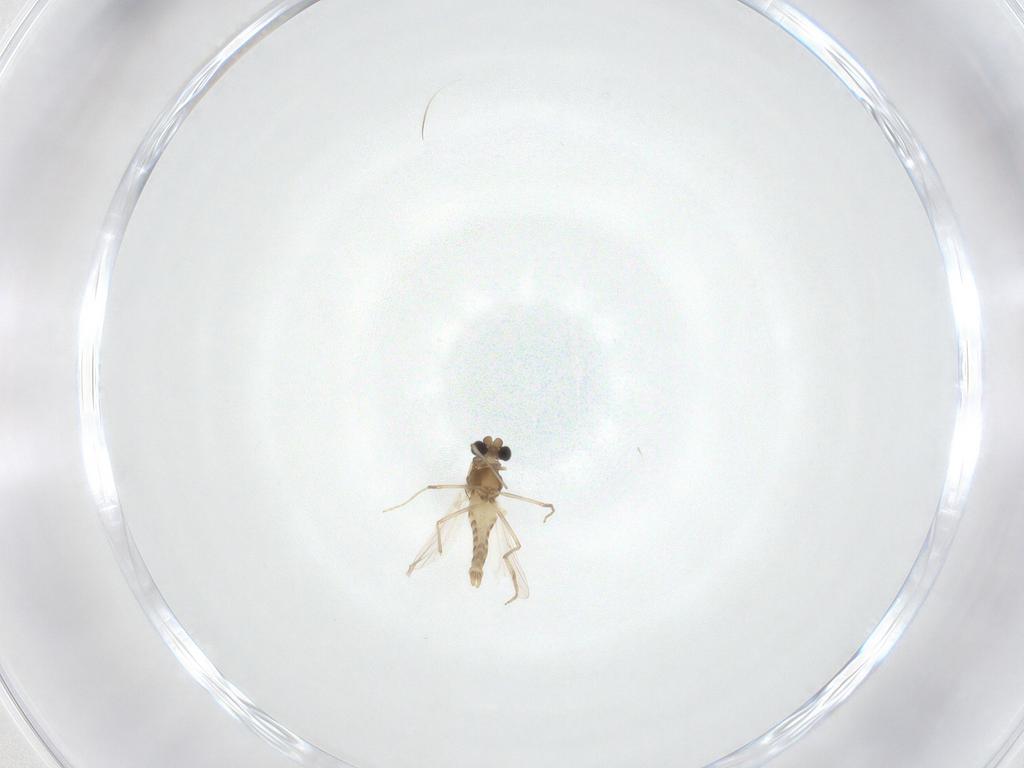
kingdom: Animalia
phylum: Arthropoda
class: Insecta
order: Diptera
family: Chironomidae
